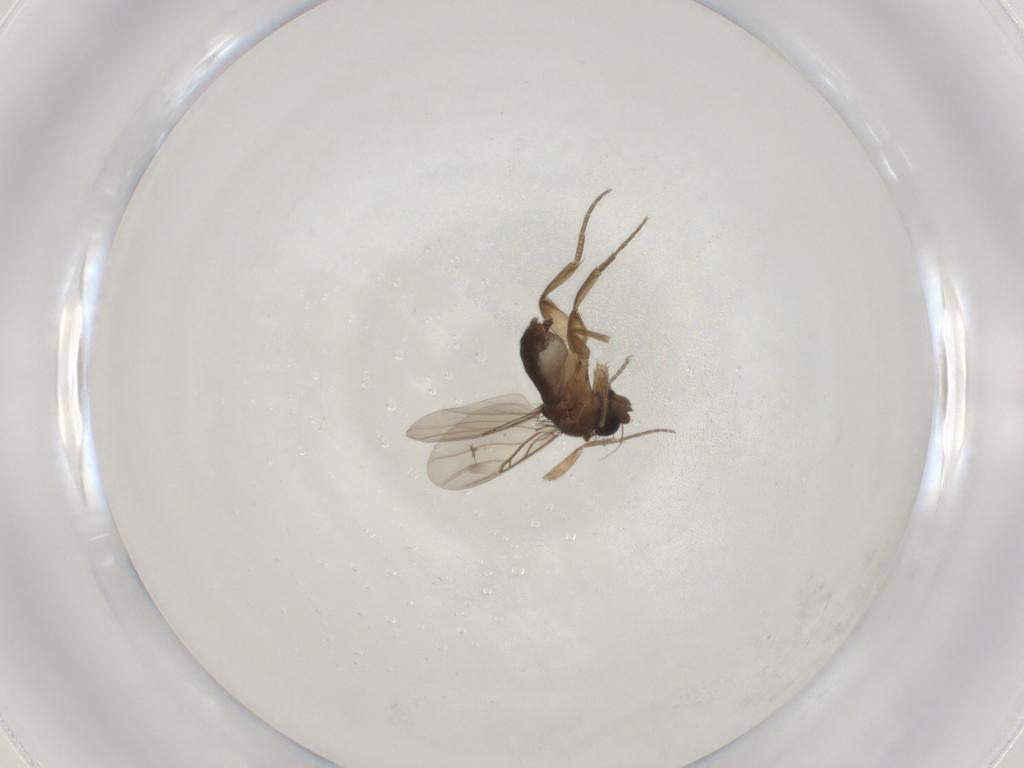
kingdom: Animalia
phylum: Arthropoda
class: Insecta
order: Diptera
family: Phoridae
